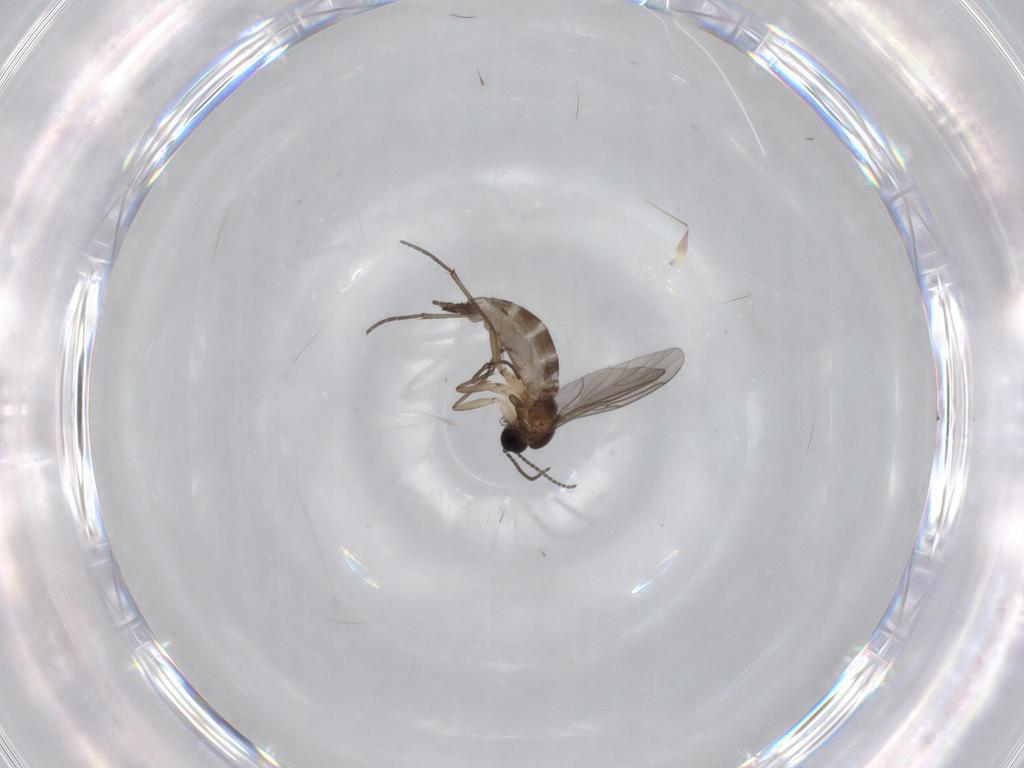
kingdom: Animalia
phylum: Arthropoda
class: Insecta
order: Diptera
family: Sciaridae
